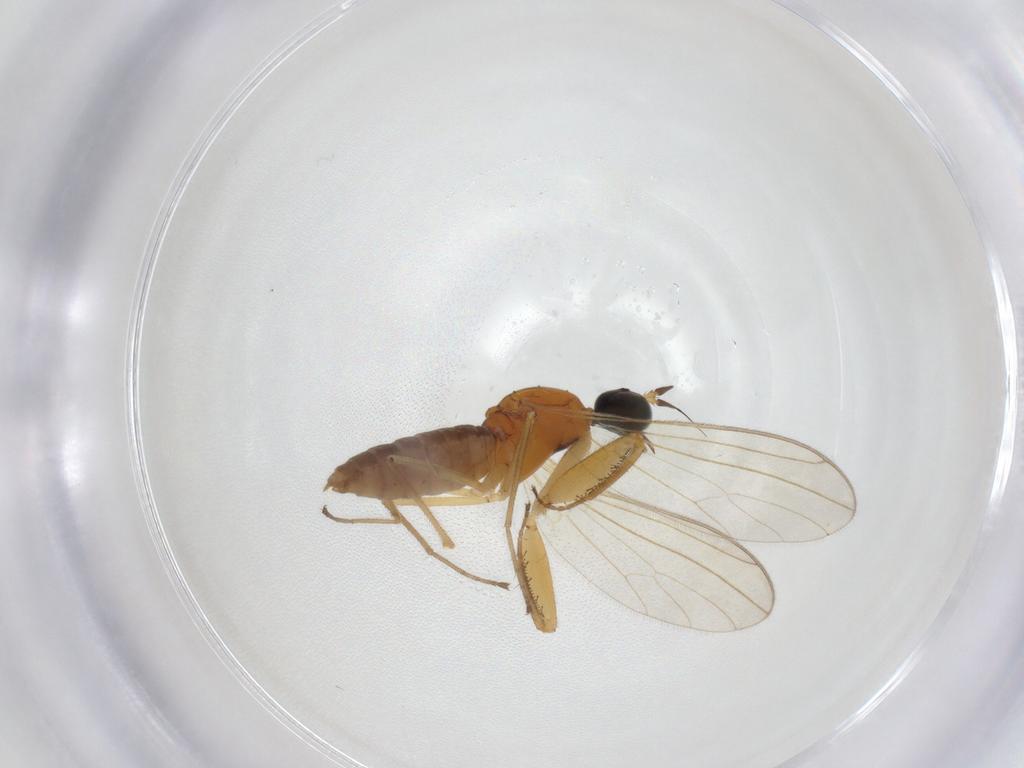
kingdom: Animalia
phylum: Arthropoda
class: Insecta
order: Diptera
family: Empididae
